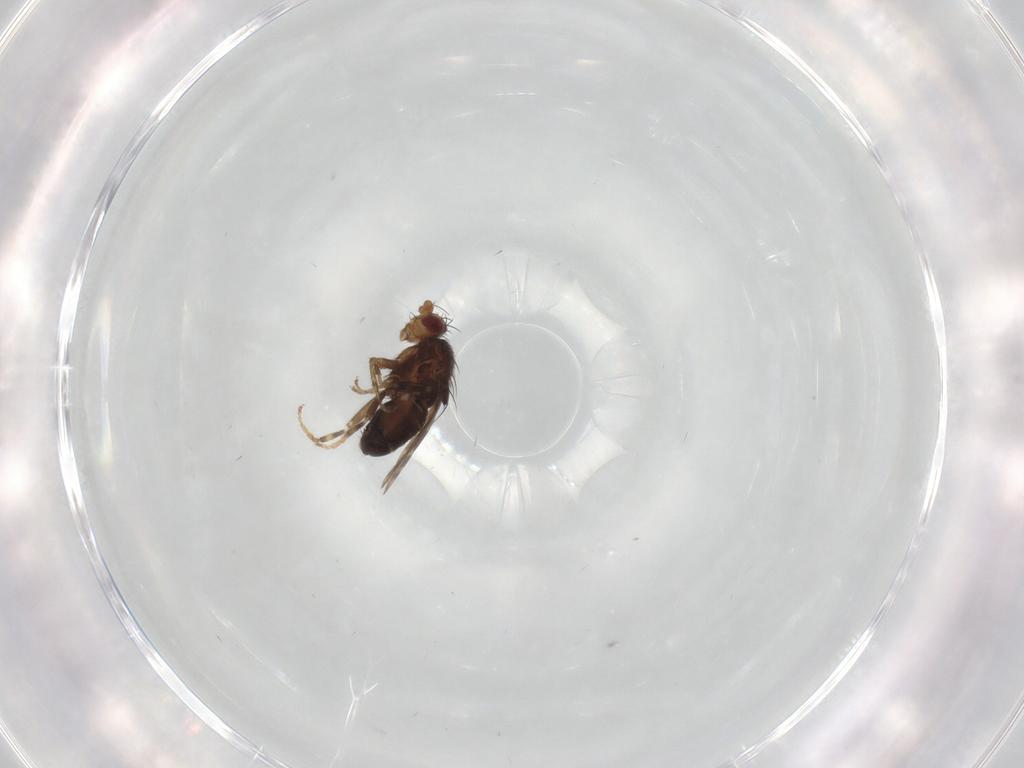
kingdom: Animalia
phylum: Arthropoda
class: Insecta
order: Diptera
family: Sphaeroceridae
